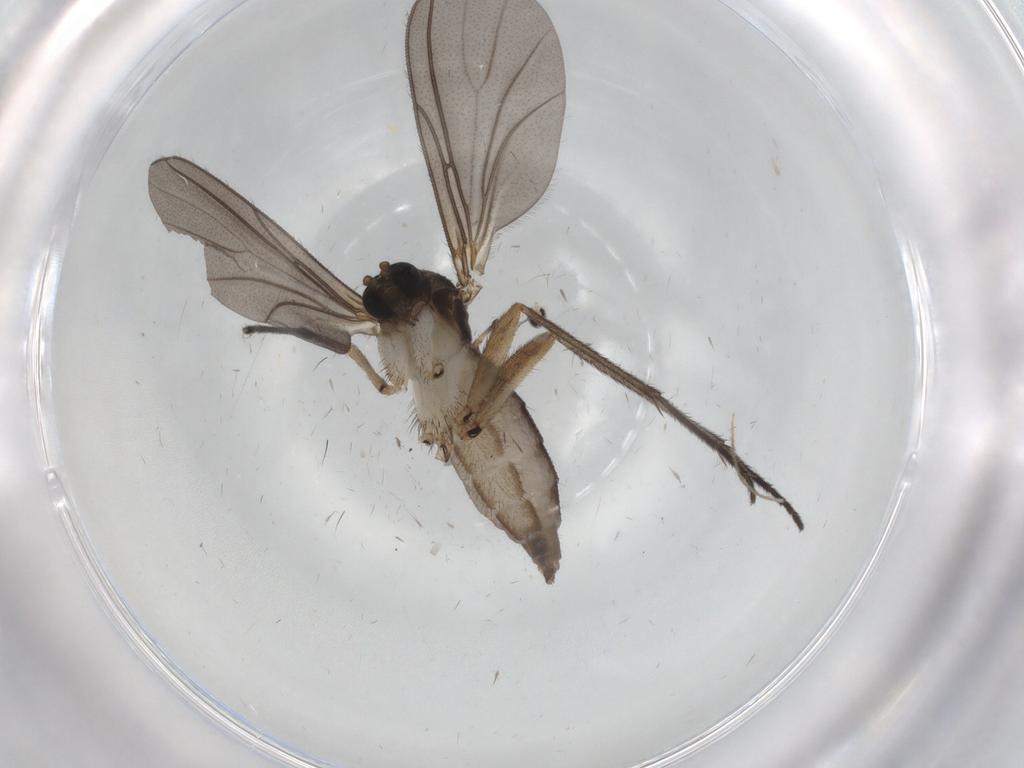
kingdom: Animalia
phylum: Arthropoda
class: Insecta
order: Diptera
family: Sciaridae
